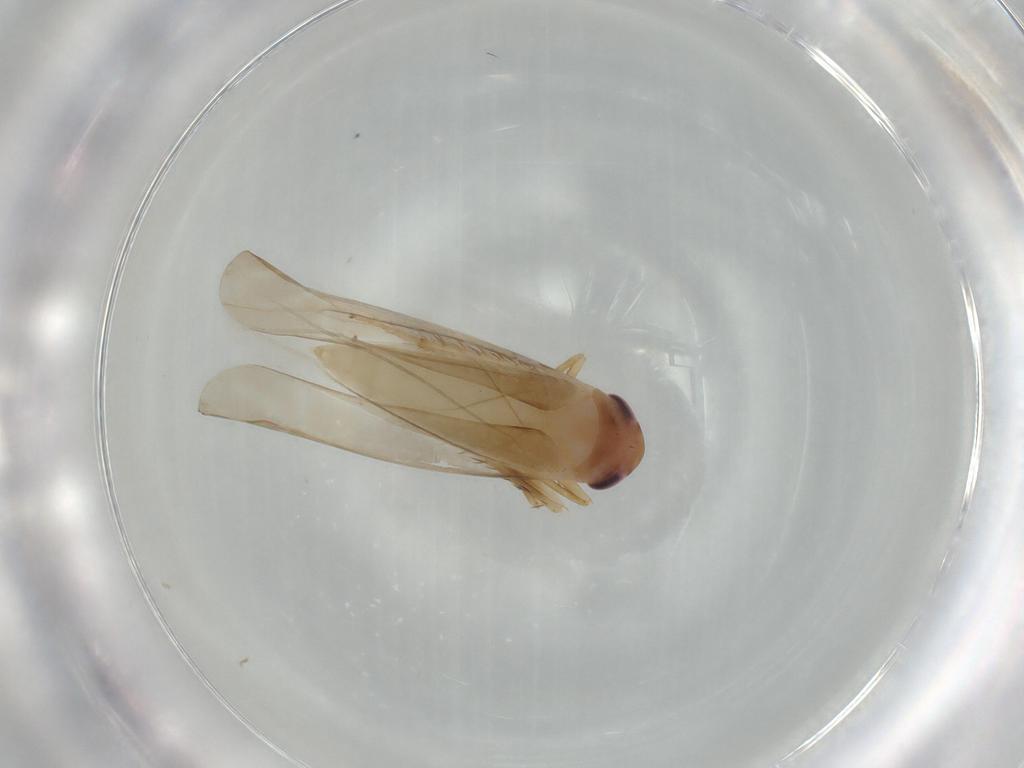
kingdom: Animalia
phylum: Arthropoda
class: Insecta
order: Hemiptera
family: Cicadellidae
